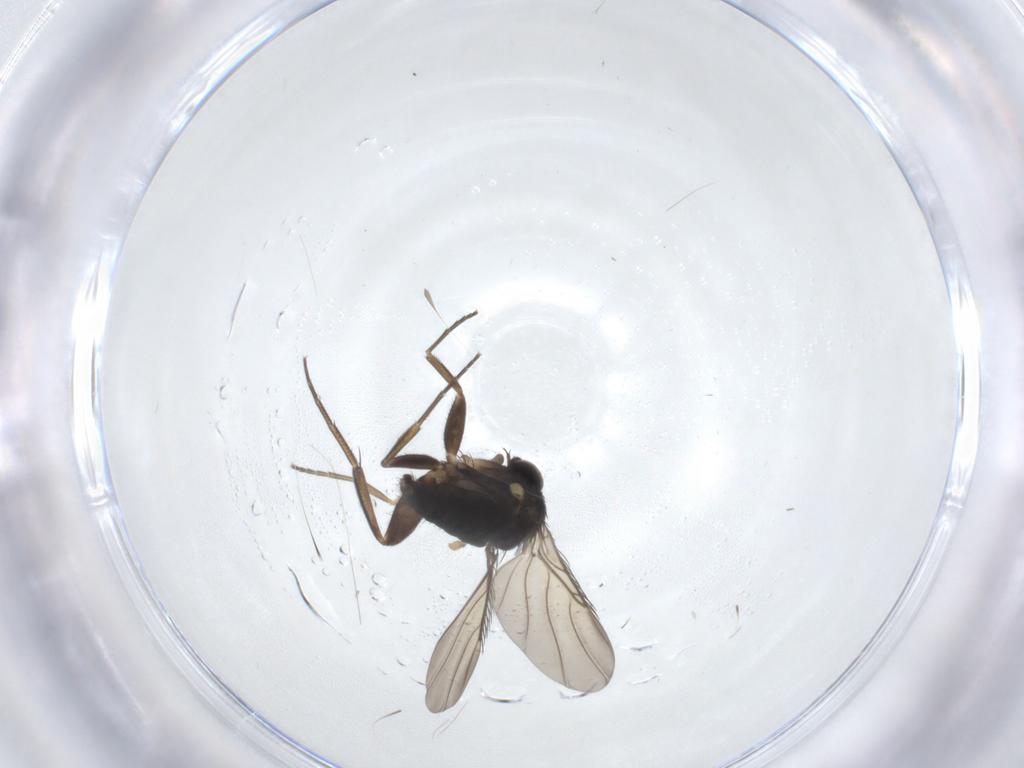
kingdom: Animalia
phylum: Arthropoda
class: Insecta
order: Diptera
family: Phoridae
